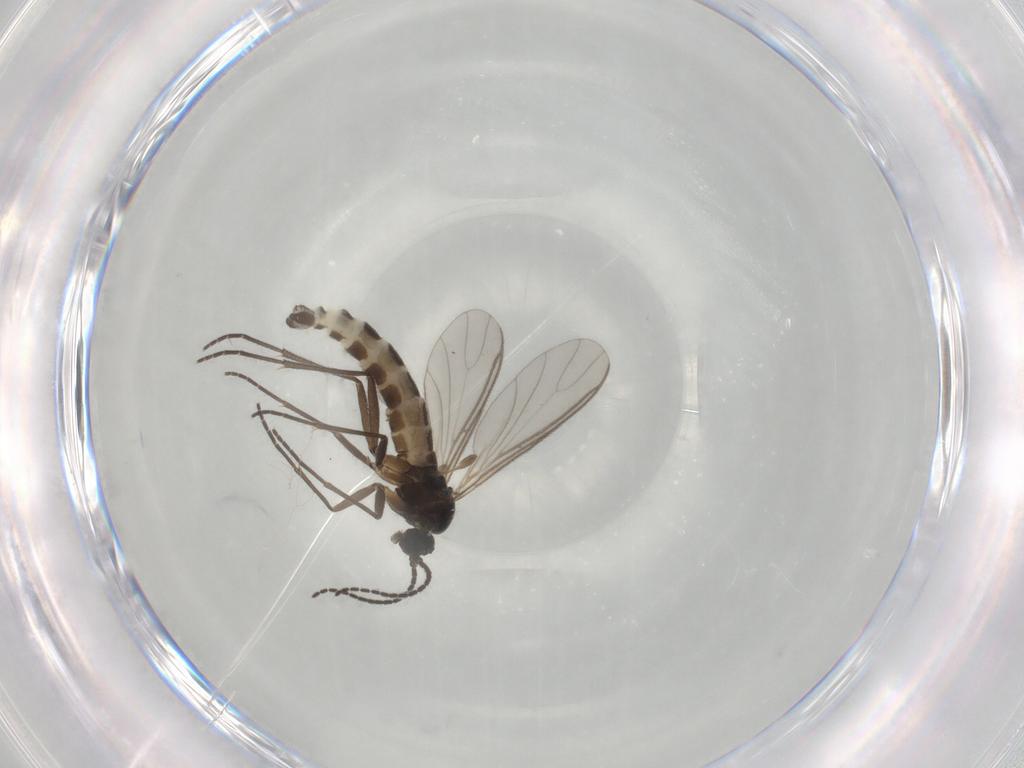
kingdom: Animalia
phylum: Arthropoda
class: Insecta
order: Diptera
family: Sciaridae
